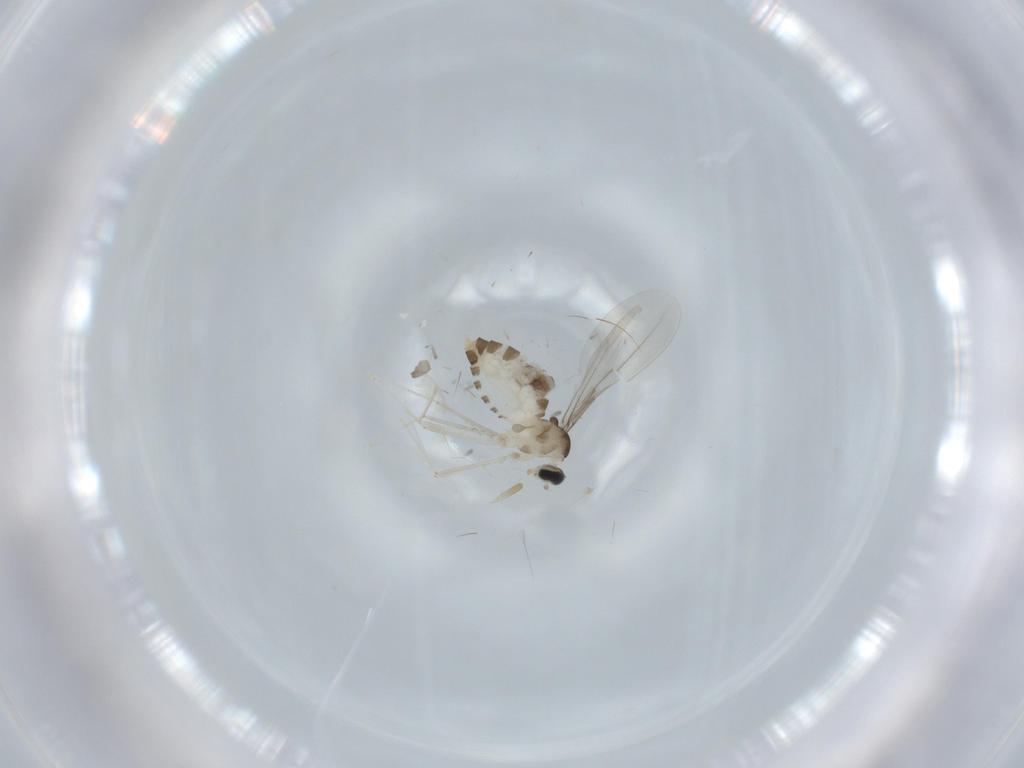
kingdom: Animalia
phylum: Arthropoda
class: Insecta
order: Diptera
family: Cecidomyiidae
